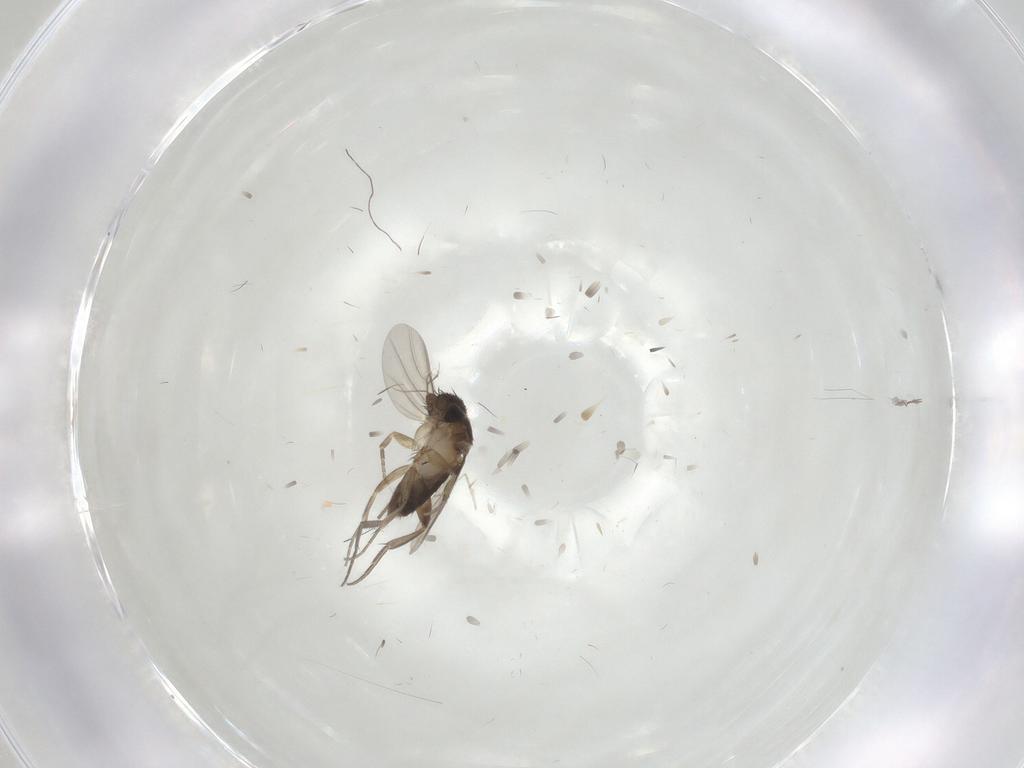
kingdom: Animalia
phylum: Arthropoda
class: Insecta
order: Diptera
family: Phoridae
